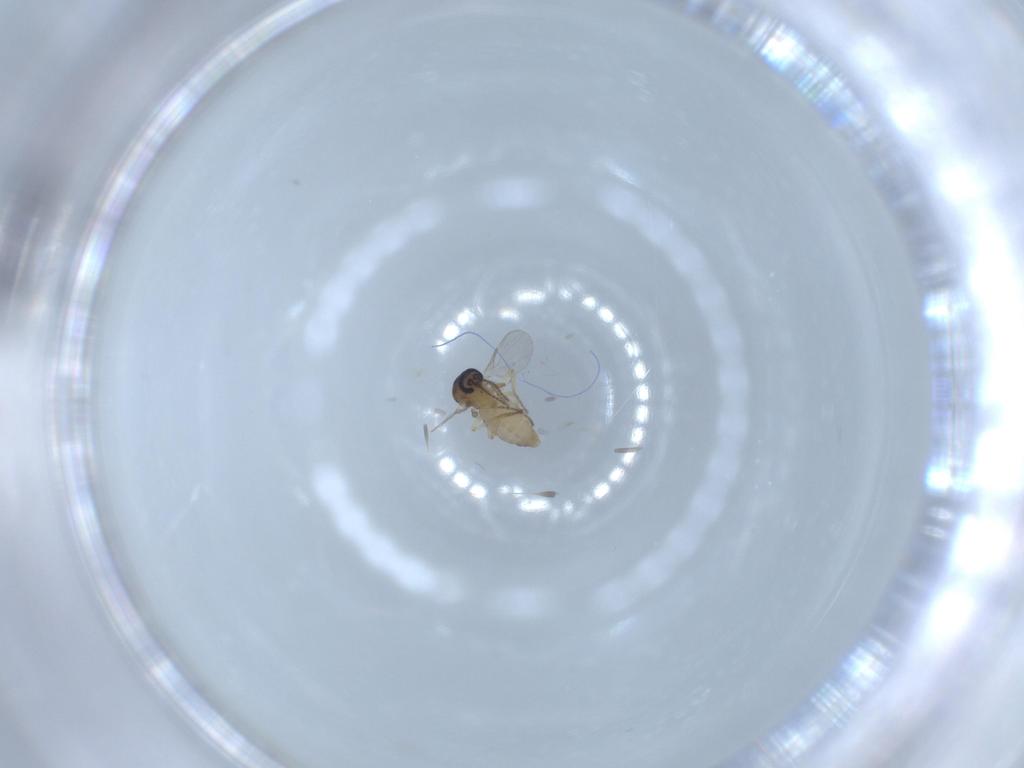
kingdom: Animalia
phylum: Arthropoda
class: Insecta
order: Diptera
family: Ceratopogonidae
